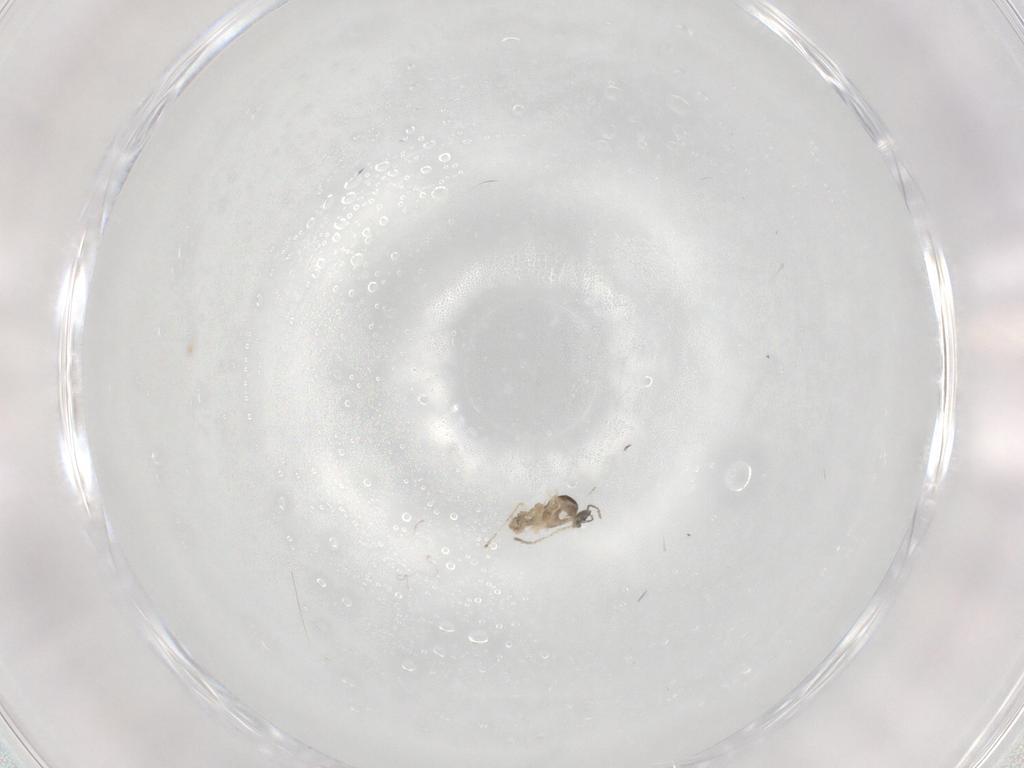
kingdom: Animalia
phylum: Arthropoda
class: Insecta
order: Diptera
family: Cecidomyiidae
